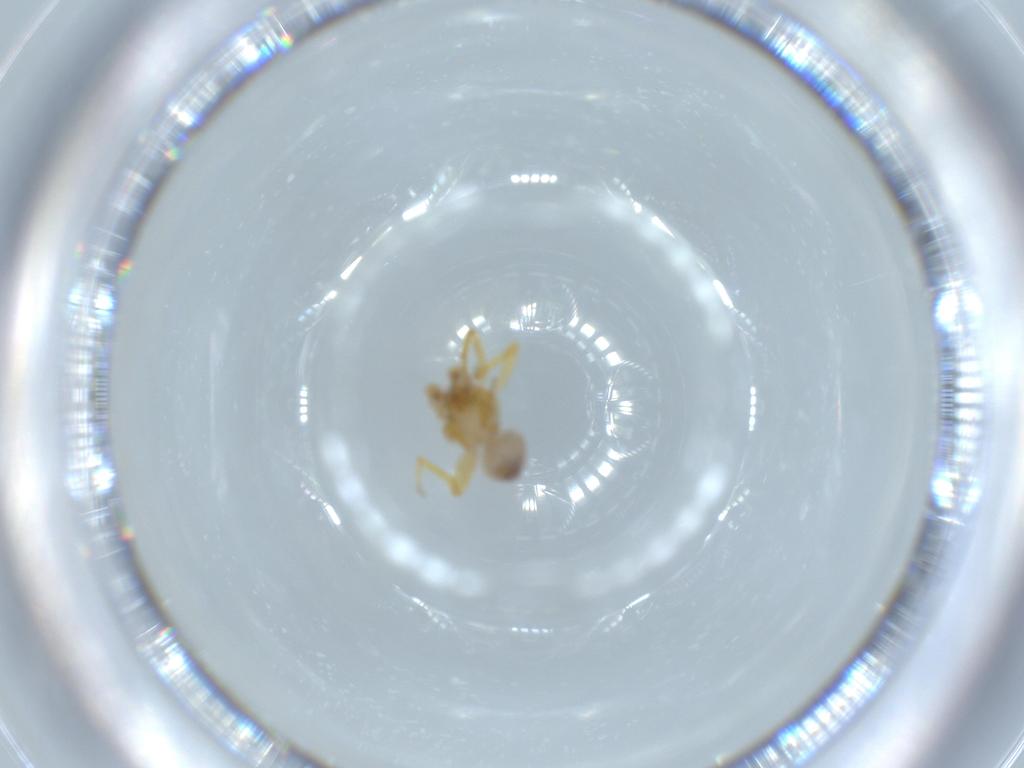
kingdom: Animalia
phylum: Arthropoda
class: Arachnida
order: Araneae
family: Oonopidae
